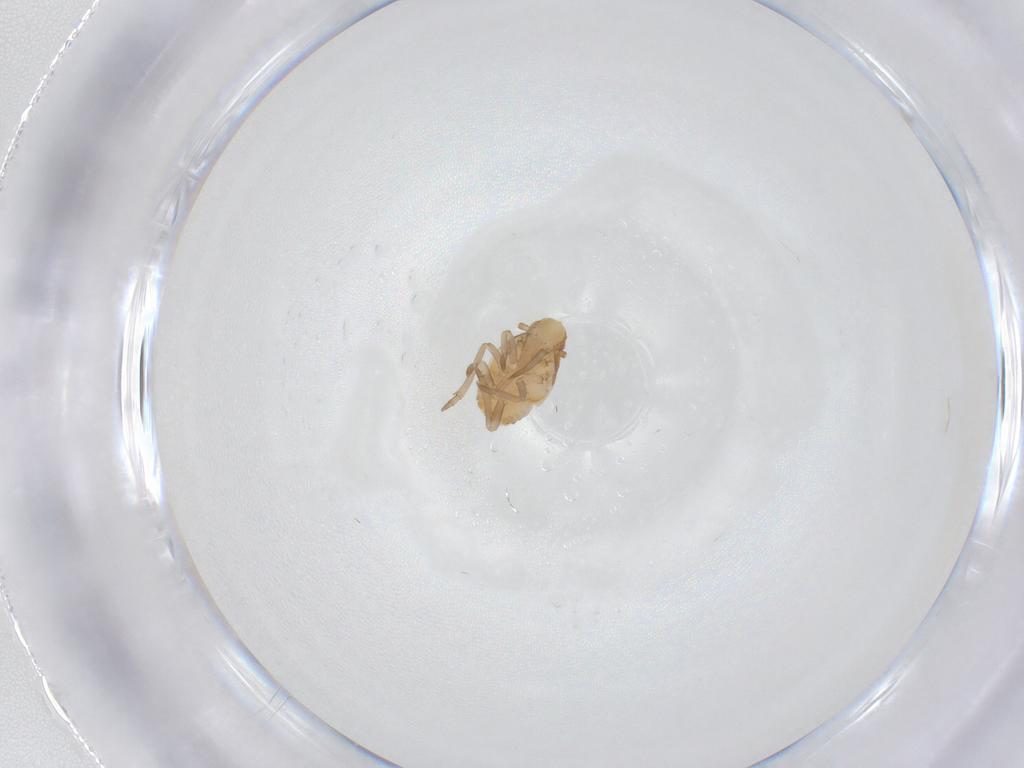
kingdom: Animalia
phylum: Arthropoda
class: Insecta
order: Hemiptera
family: Flatidae
